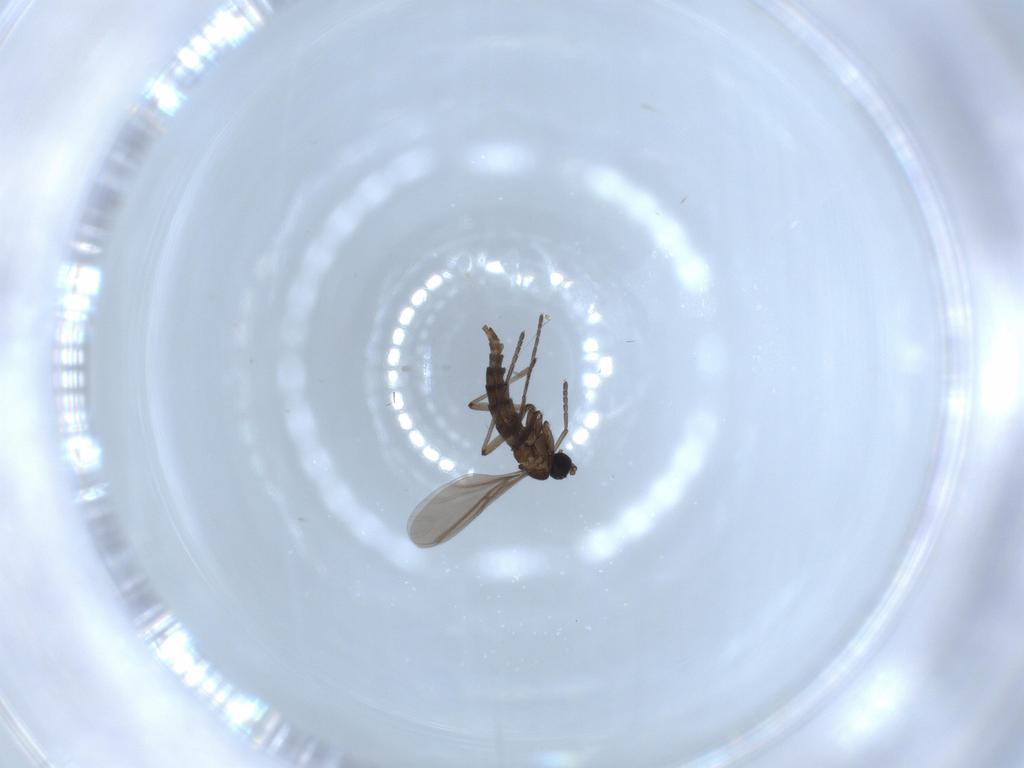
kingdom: Animalia
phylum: Arthropoda
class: Insecta
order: Diptera
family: Sciaridae
